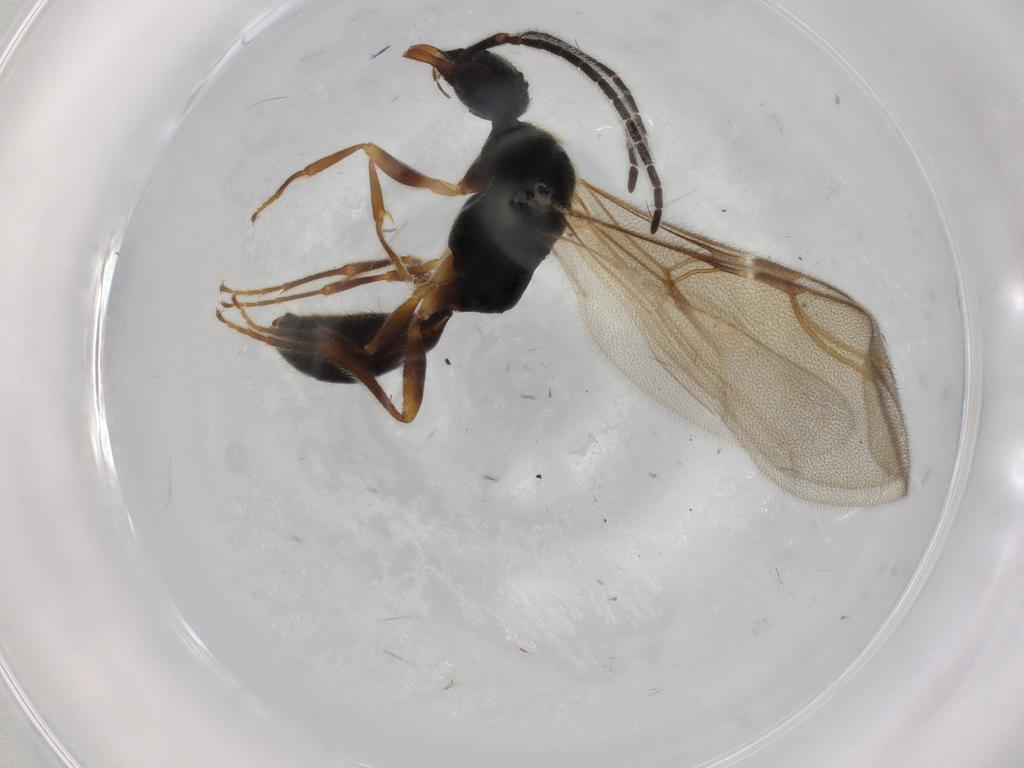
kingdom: Animalia
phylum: Arthropoda
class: Insecta
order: Hymenoptera
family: Bethylidae
